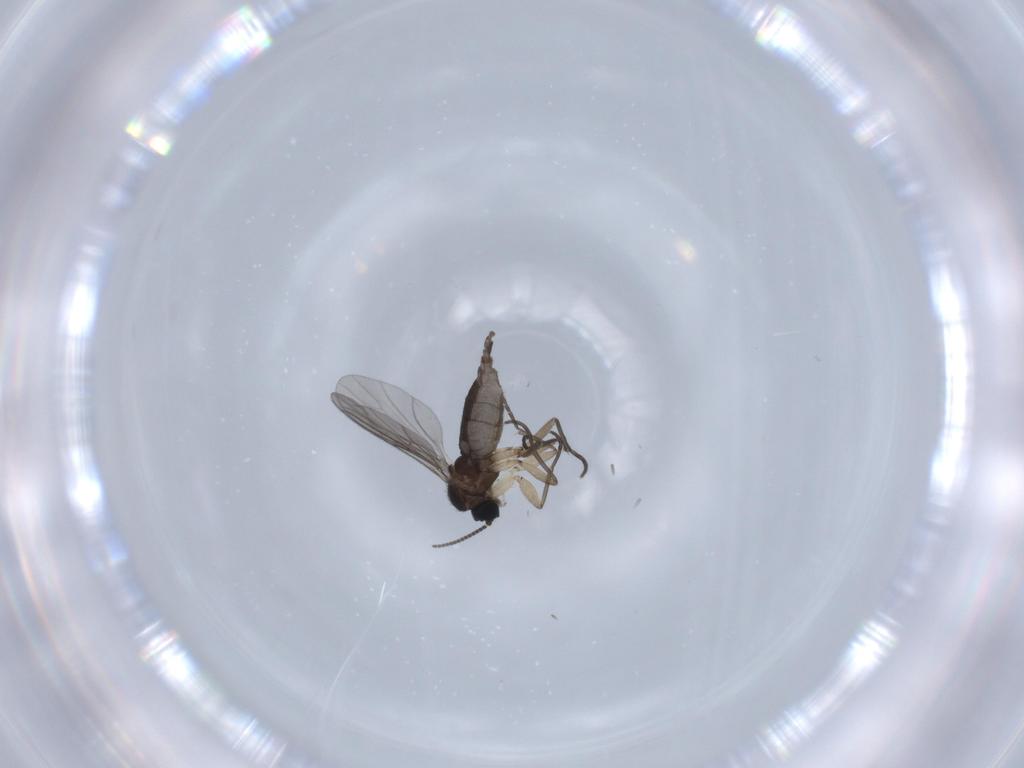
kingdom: Animalia
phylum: Arthropoda
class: Insecta
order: Diptera
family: Sciaridae
